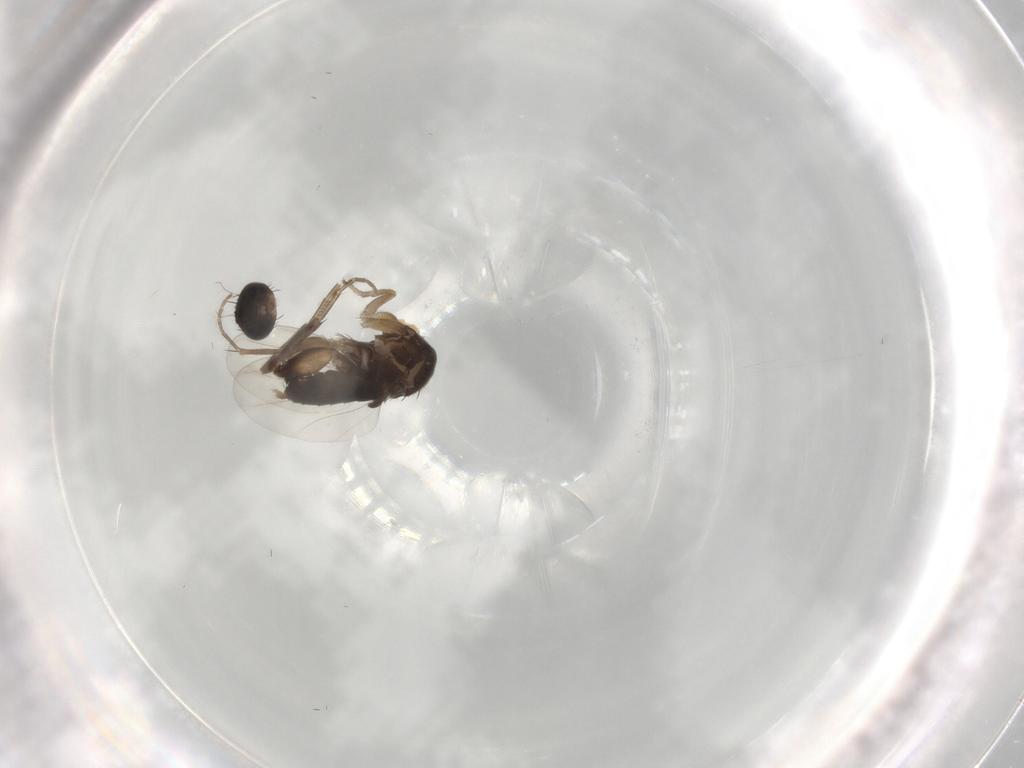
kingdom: Animalia
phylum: Arthropoda
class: Insecta
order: Diptera
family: Phoridae
